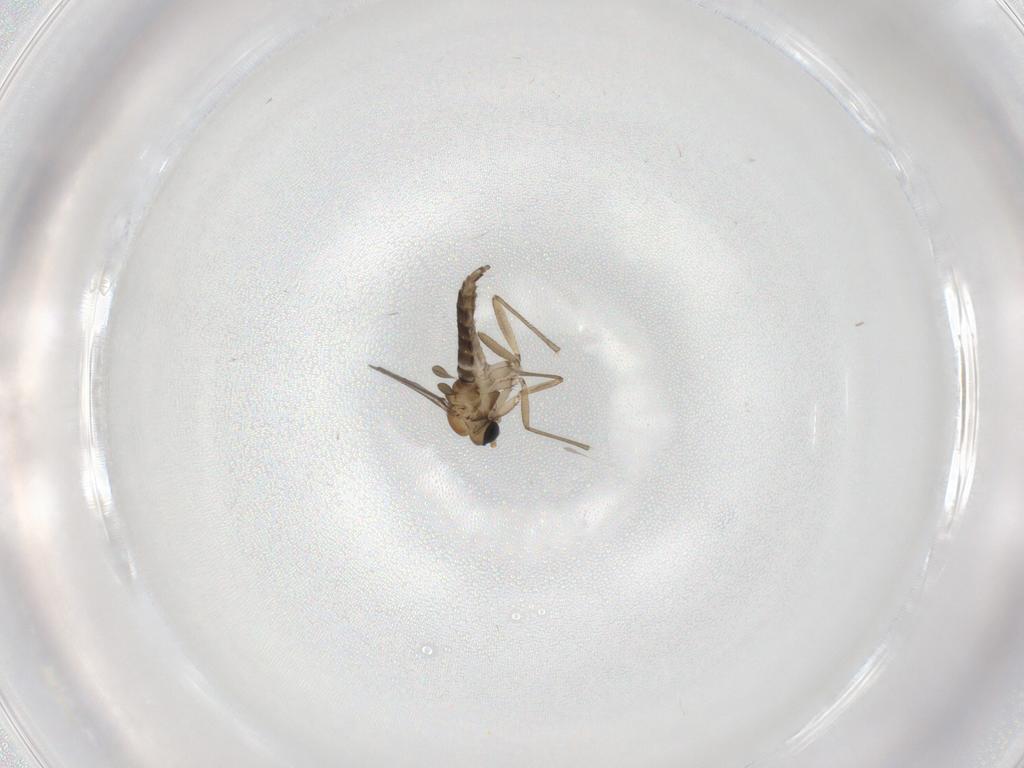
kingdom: Animalia
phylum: Arthropoda
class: Insecta
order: Diptera
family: Sciaridae
